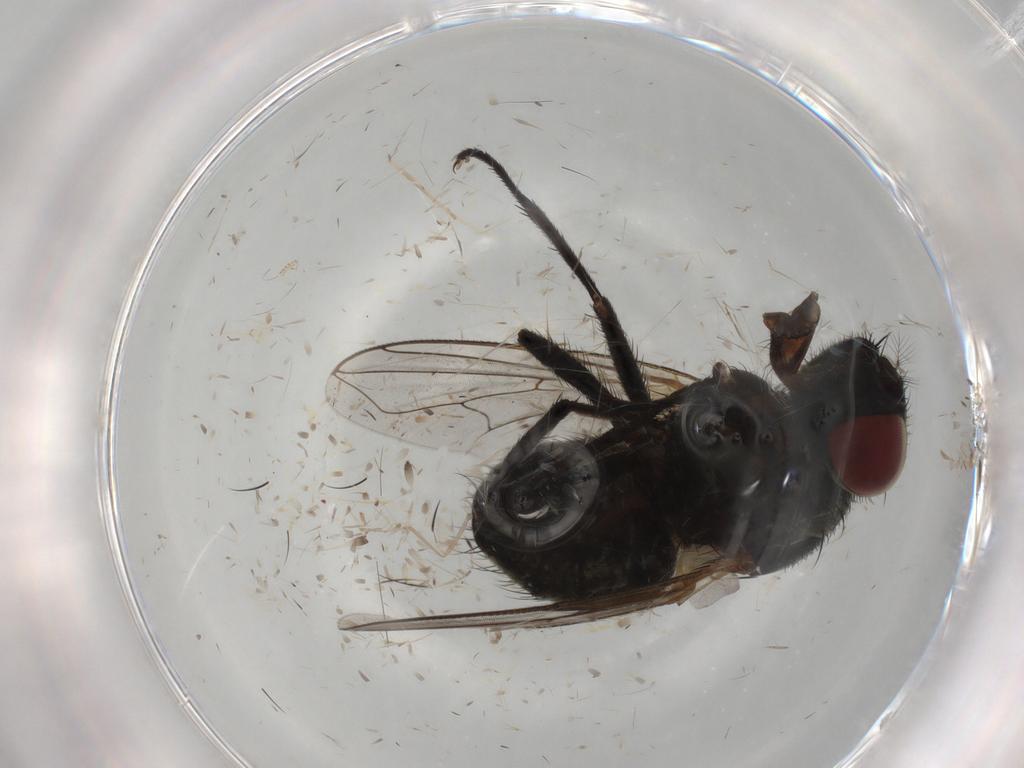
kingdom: Animalia
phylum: Arthropoda
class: Insecta
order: Diptera
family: Muscidae
